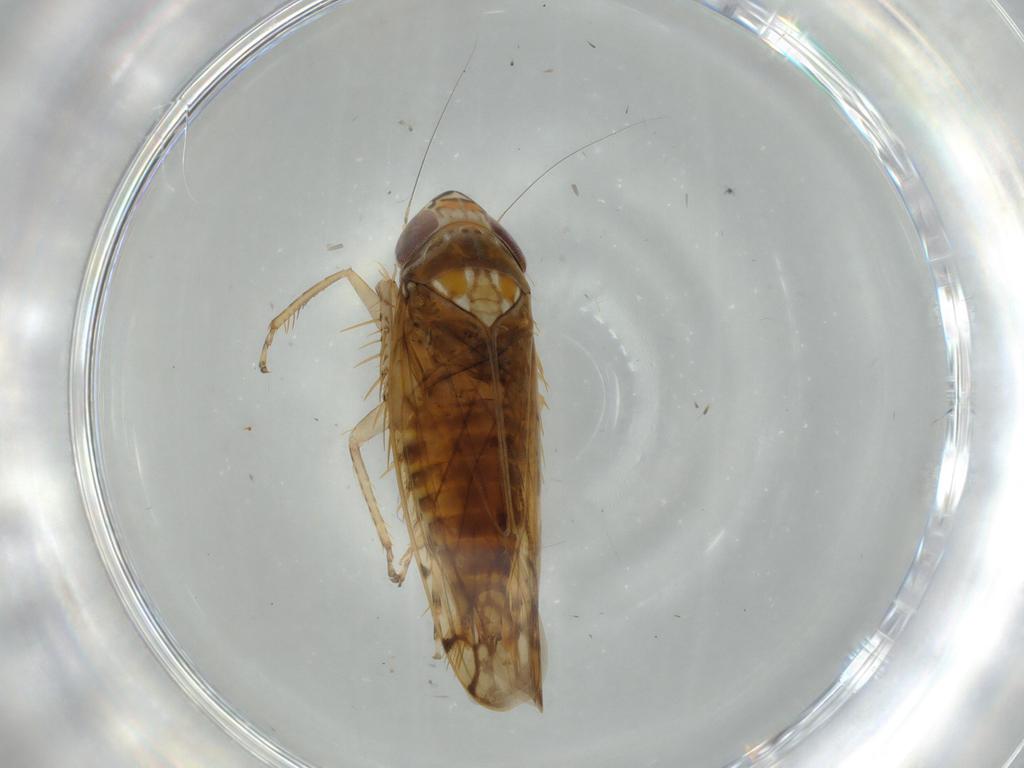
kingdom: Animalia
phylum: Arthropoda
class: Insecta
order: Hemiptera
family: Cicadellidae
